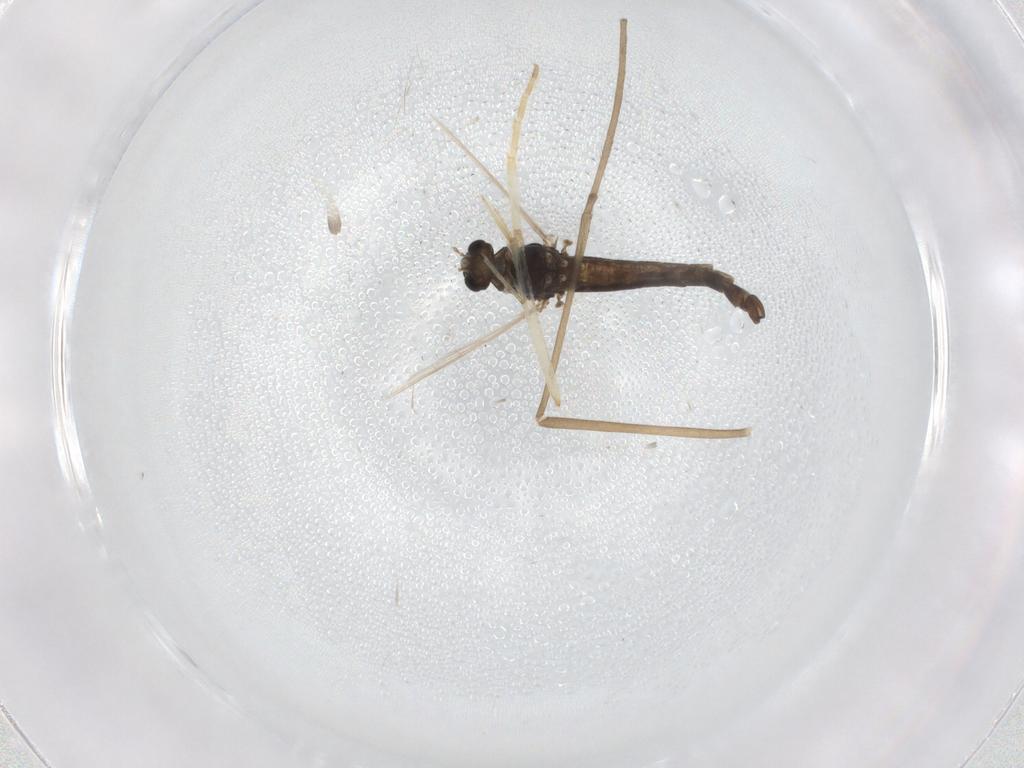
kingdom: Animalia
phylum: Arthropoda
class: Insecta
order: Diptera
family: Chironomidae
